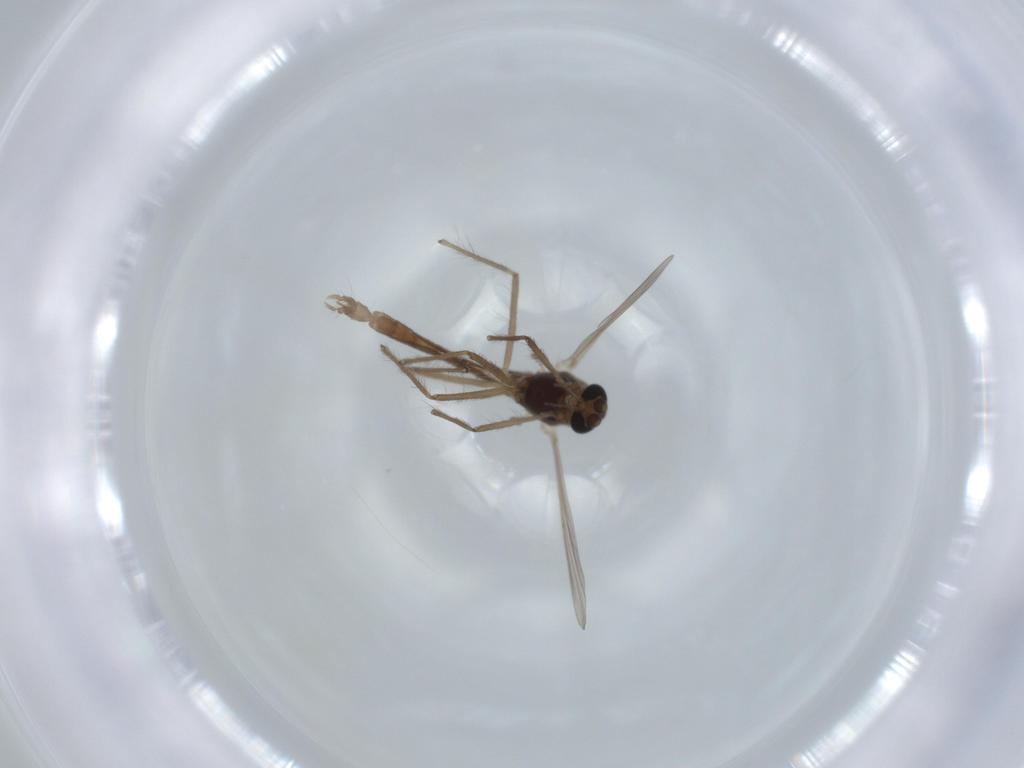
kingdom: Animalia
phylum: Arthropoda
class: Insecta
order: Diptera
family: Chironomidae
